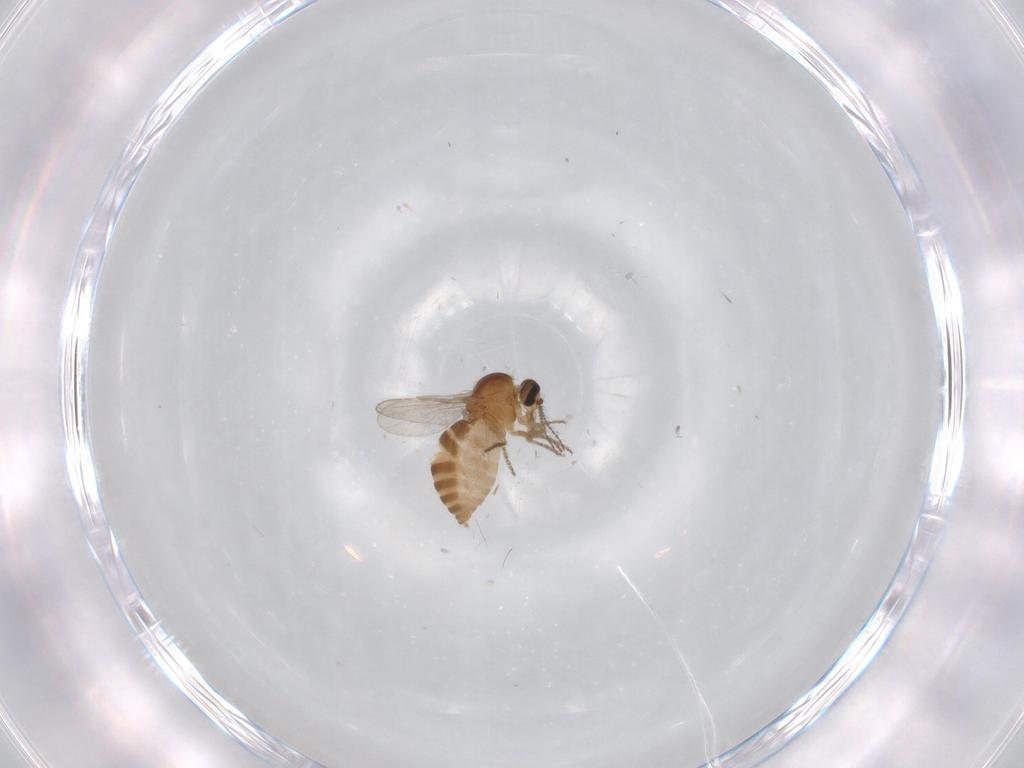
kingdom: Animalia
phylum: Arthropoda
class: Insecta
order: Diptera
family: Ceratopogonidae
